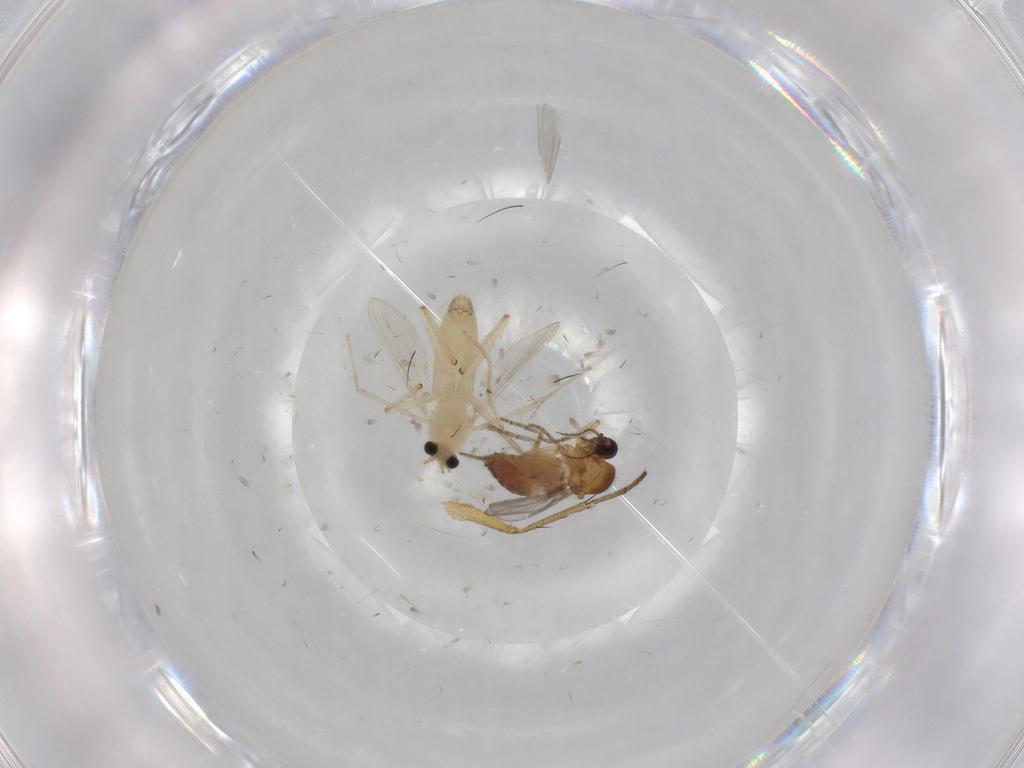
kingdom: Animalia
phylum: Arthropoda
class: Insecta
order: Diptera
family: Chironomidae
